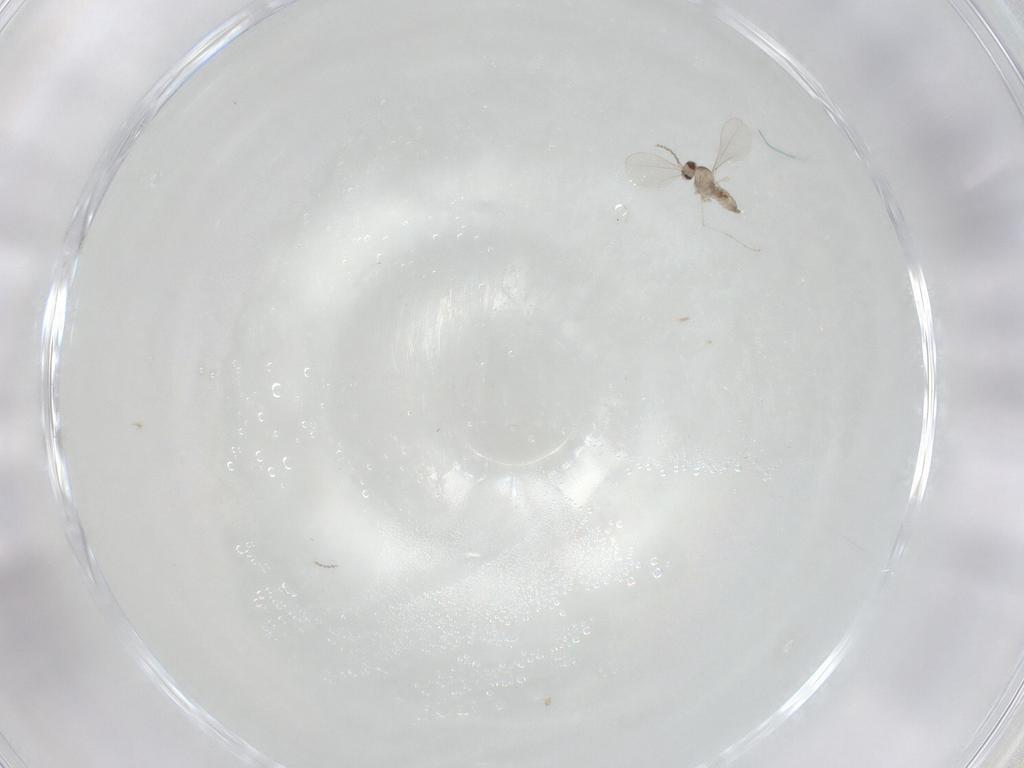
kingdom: Animalia
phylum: Arthropoda
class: Insecta
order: Diptera
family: Cecidomyiidae
